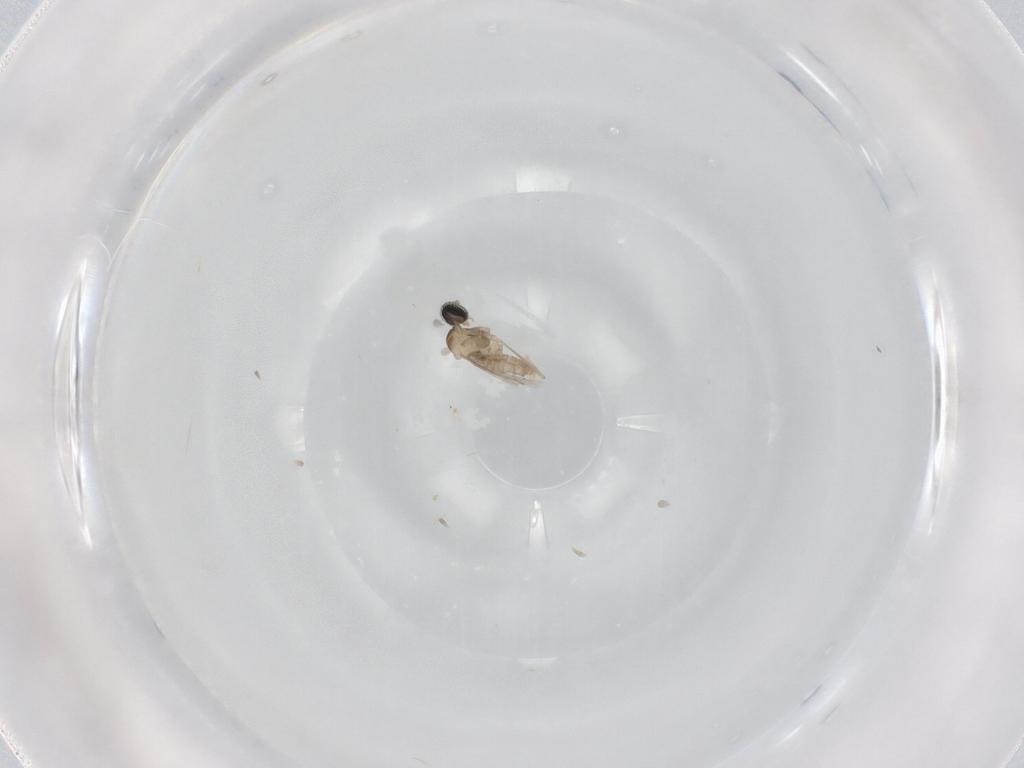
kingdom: Animalia
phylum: Arthropoda
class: Insecta
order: Diptera
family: Cecidomyiidae
